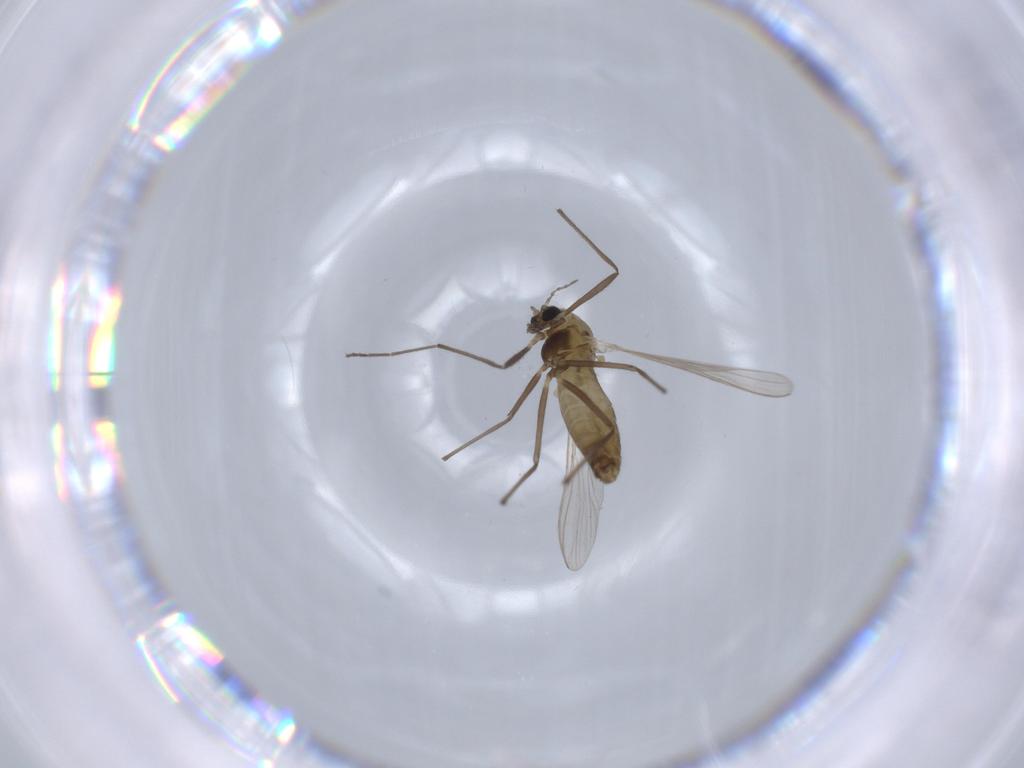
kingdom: Animalia
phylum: Arthropoda
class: Insecta
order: Diptera
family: Chironomidae
